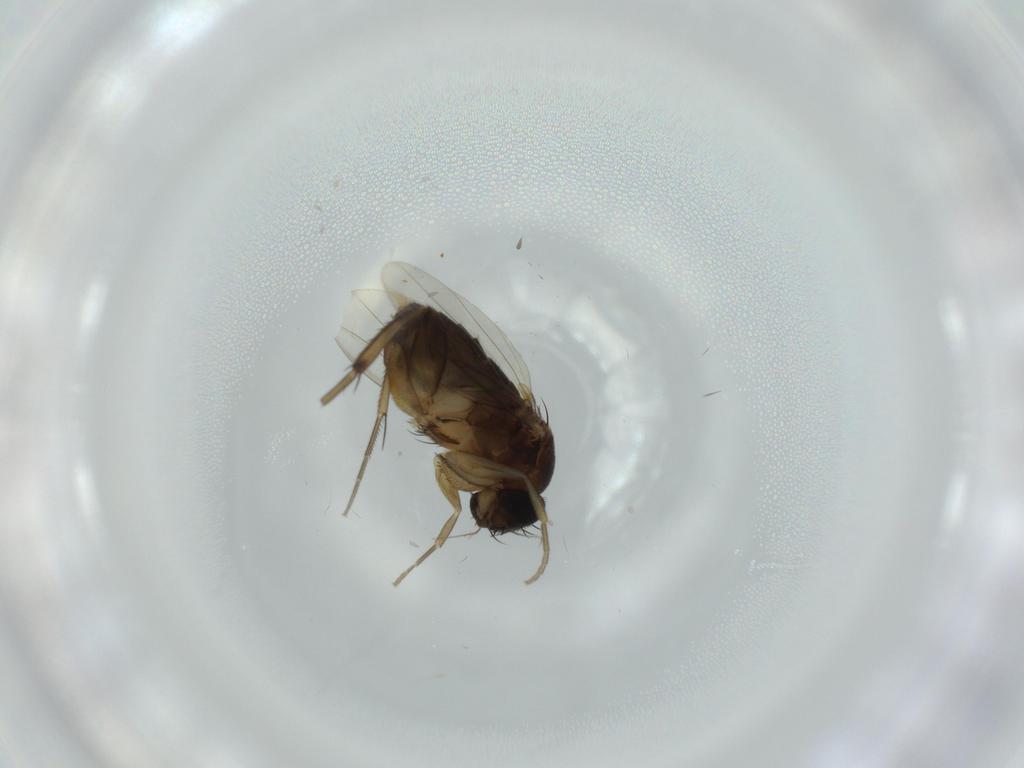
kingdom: Animalia
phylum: Arthropoda
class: Insecta
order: Diptera
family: Phoridae
